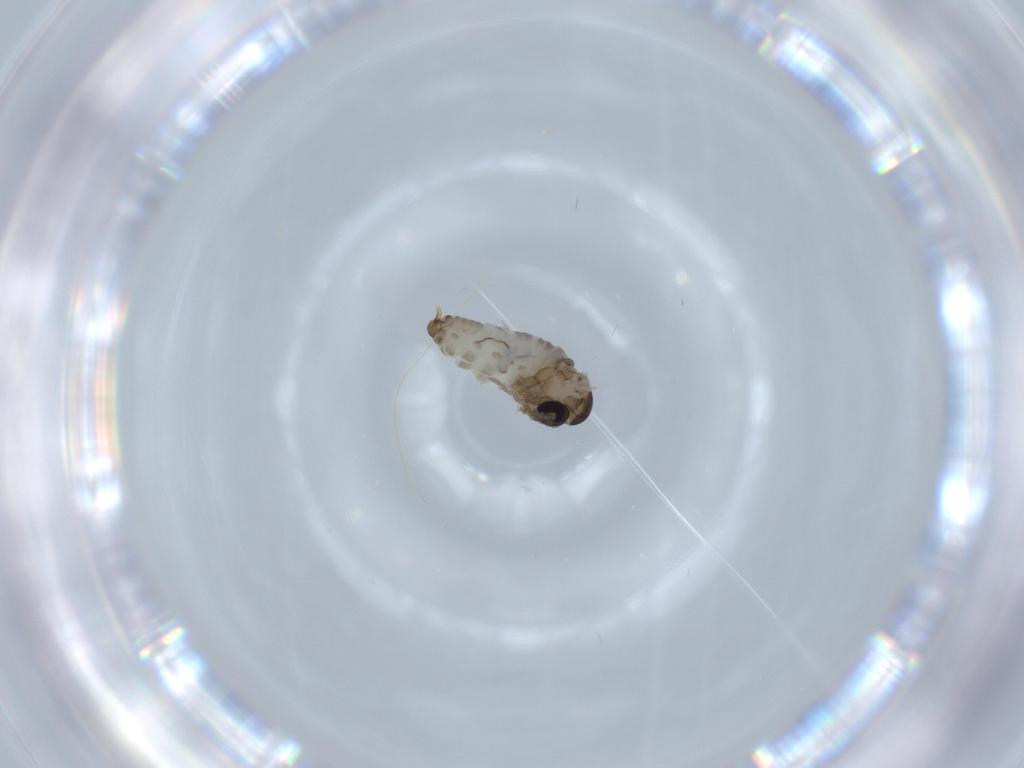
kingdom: Animalia
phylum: Arthropoda
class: Insecta
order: Diptera
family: Psychodidae
